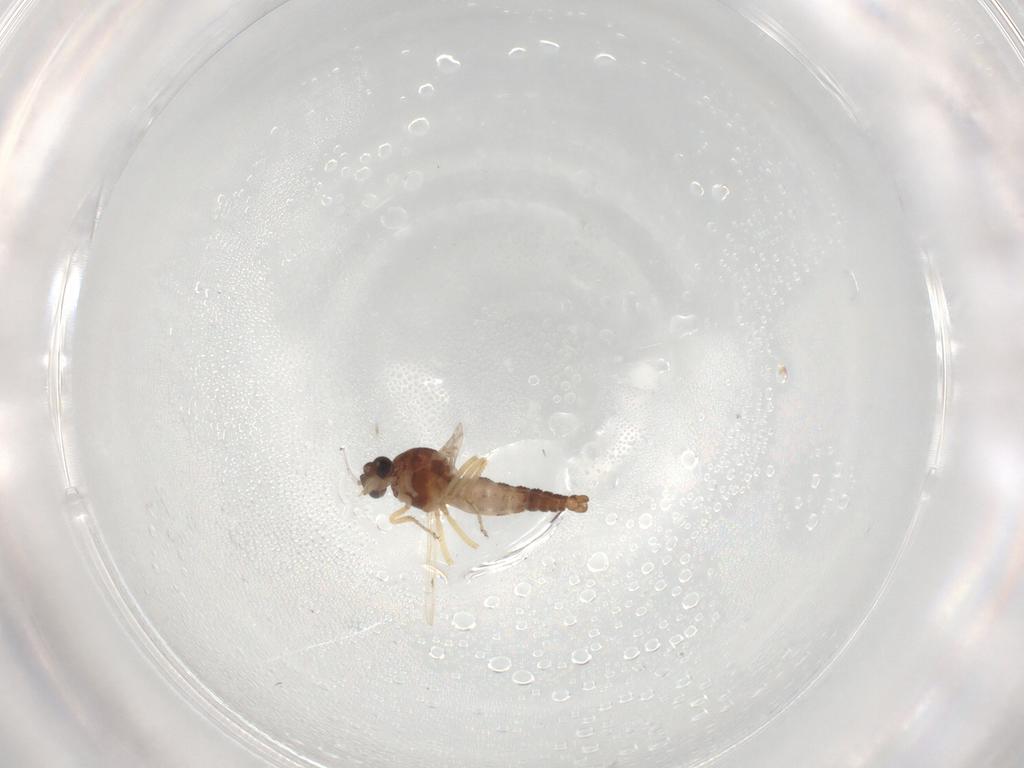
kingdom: Animalia
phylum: Arthropoda
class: Insecta
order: Diptera
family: Ceratopogonidae
